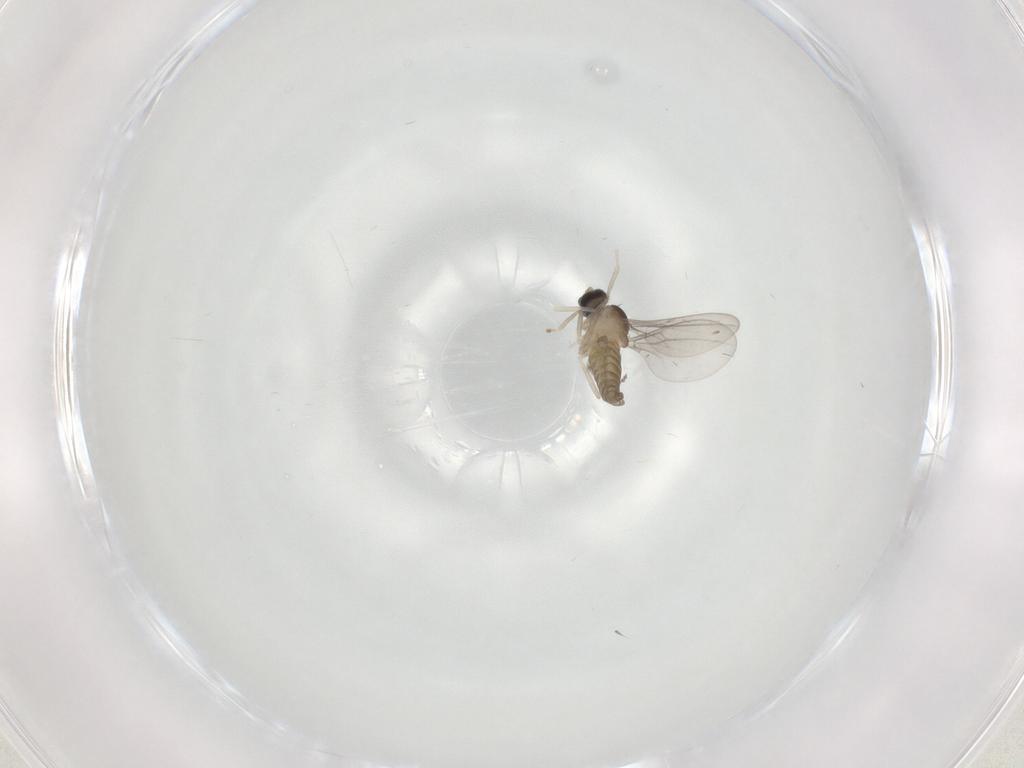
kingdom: Animalia
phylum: Arthropoda
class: Insecta
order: Diptera
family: Cecidomyiidae
